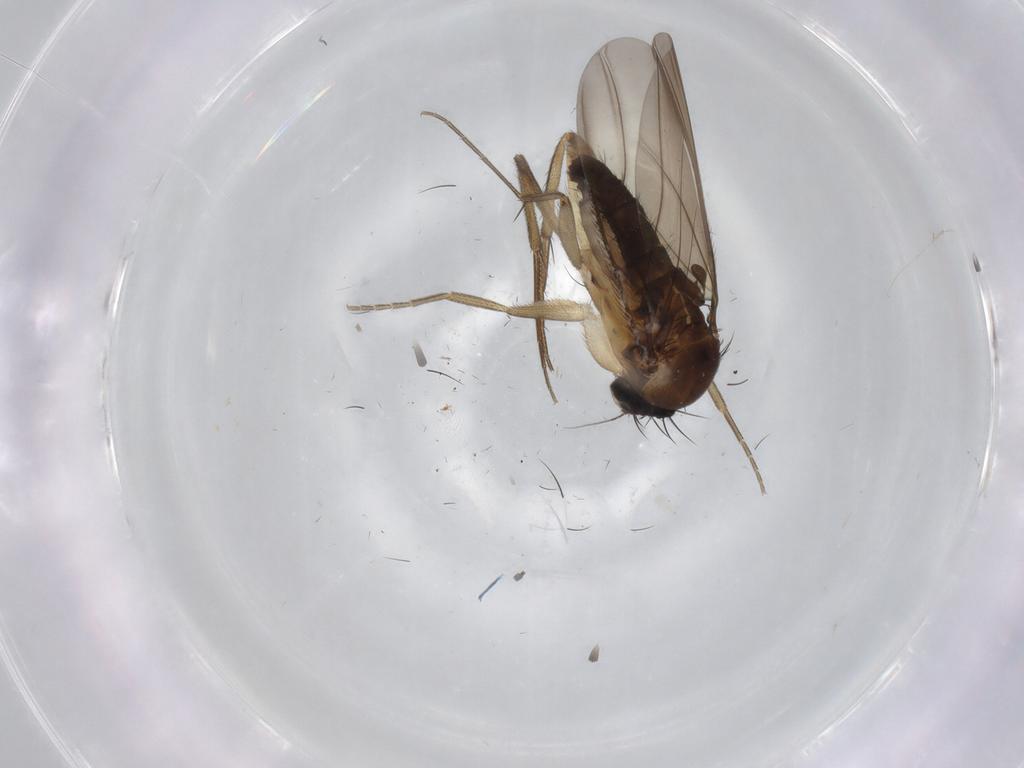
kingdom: Animalia
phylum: Arthropoda
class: Insecta
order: Diptera
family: Phoridae
